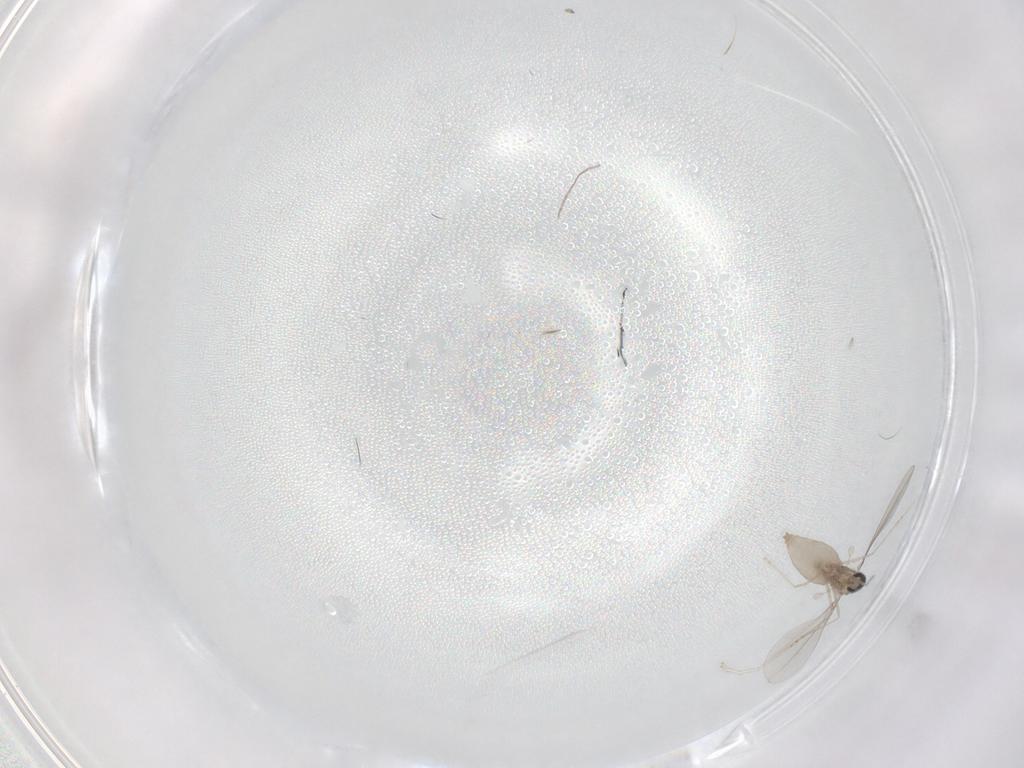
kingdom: Animalia
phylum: Arthropoda
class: Insecta
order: Diptera
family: Cecidomyiidae
